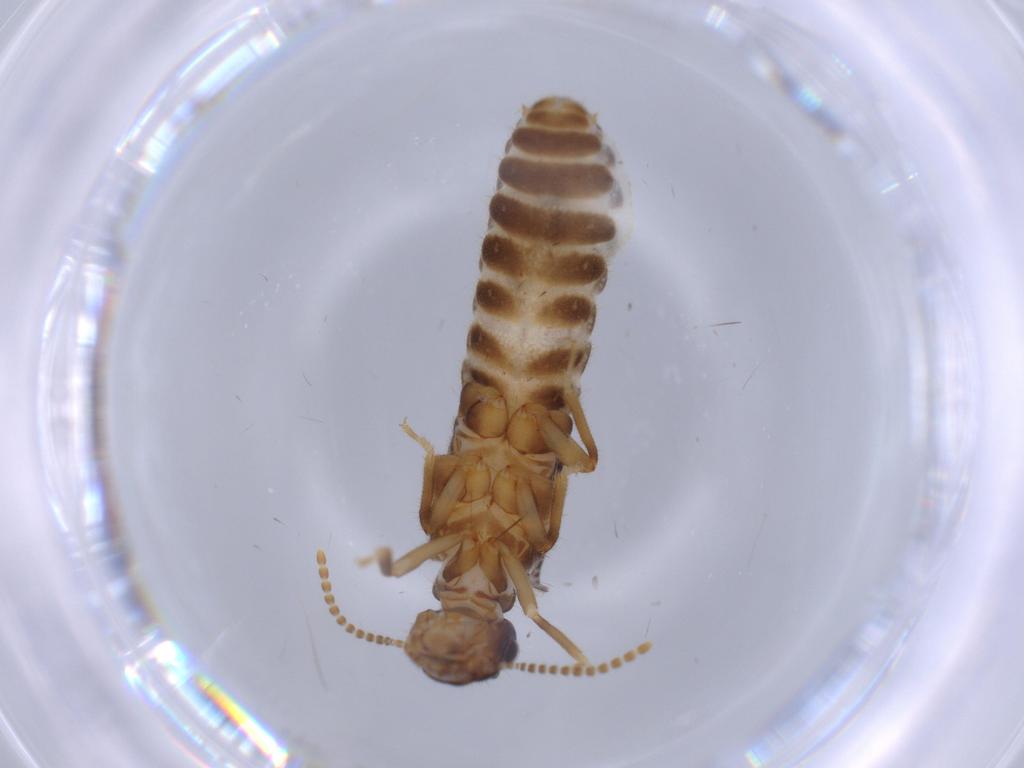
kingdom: Animalia
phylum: Arthropoda
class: Insecta
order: Blattodea
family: Termitidae
